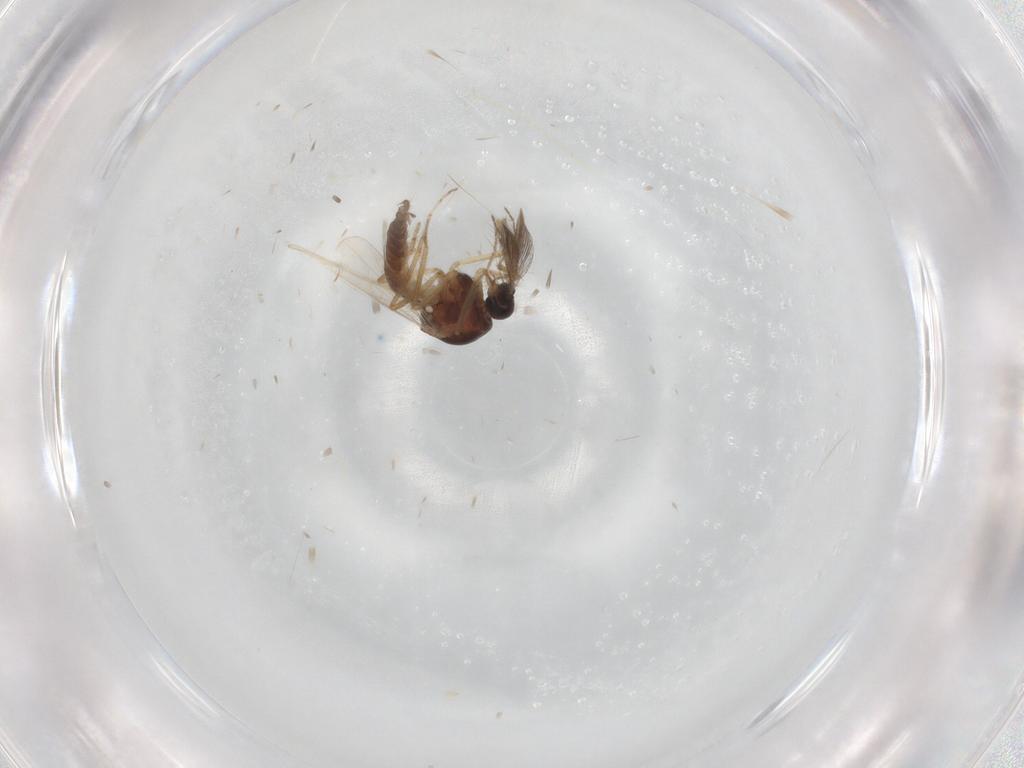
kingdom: Animalia
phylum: Arthropoda
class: Insecta
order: Diptera
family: Ceratopogonidae
